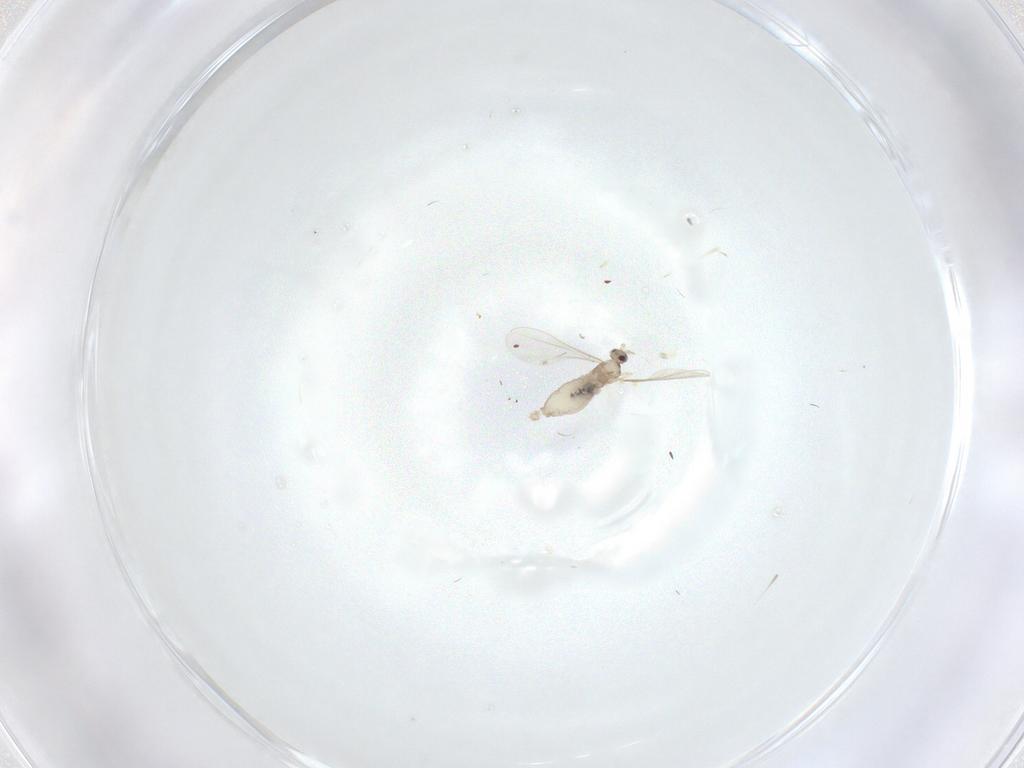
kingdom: Animalia
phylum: Arthropoda
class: Insecta
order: Diptera
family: Cecidomyiidae
